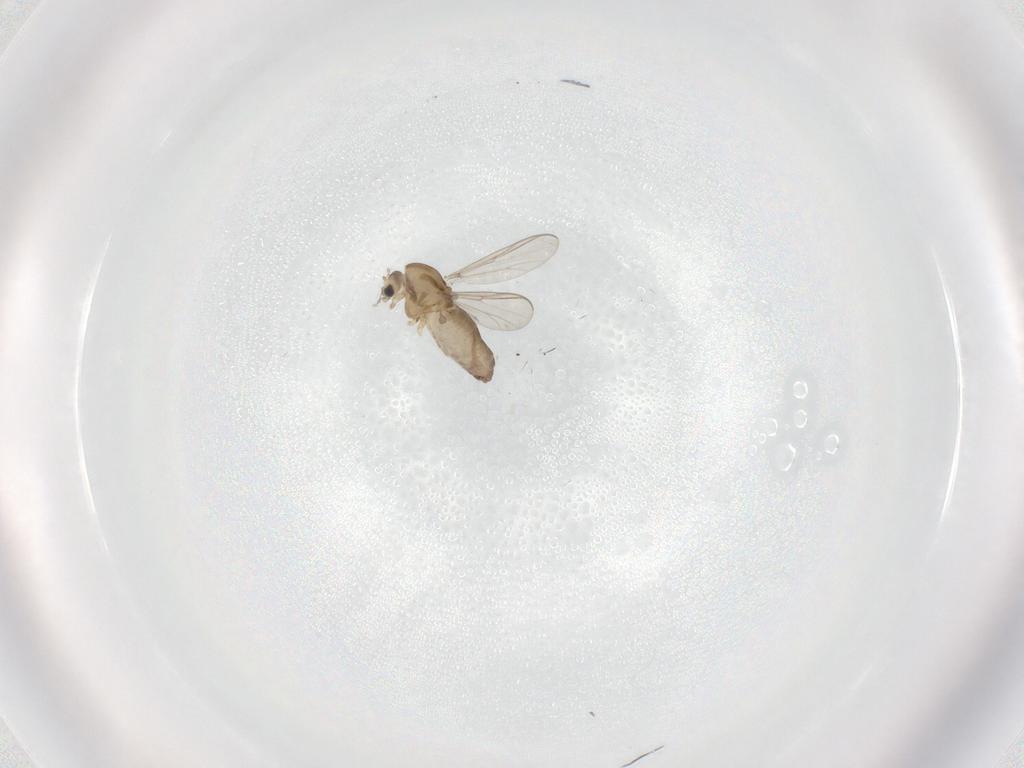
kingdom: Animalia
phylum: Arthropoda
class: Insecta
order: Diptera
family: Chironomidae
